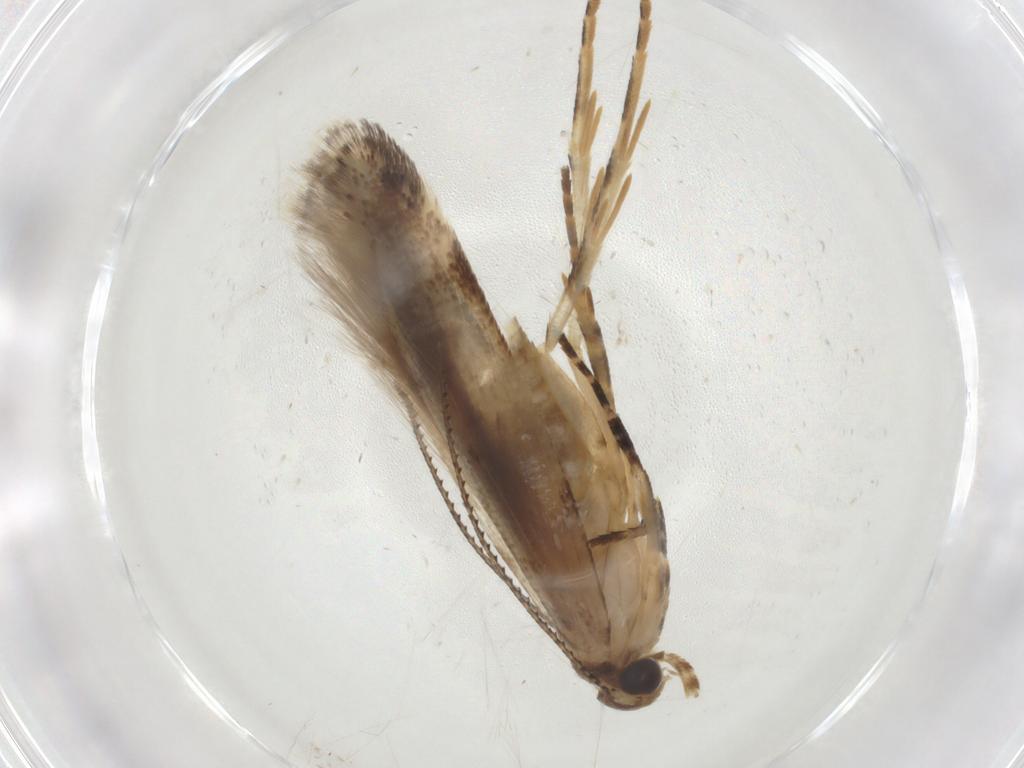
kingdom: Animalia
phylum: Arthropoda
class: Insecta
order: Lepidoptera
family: Gelechiidae
